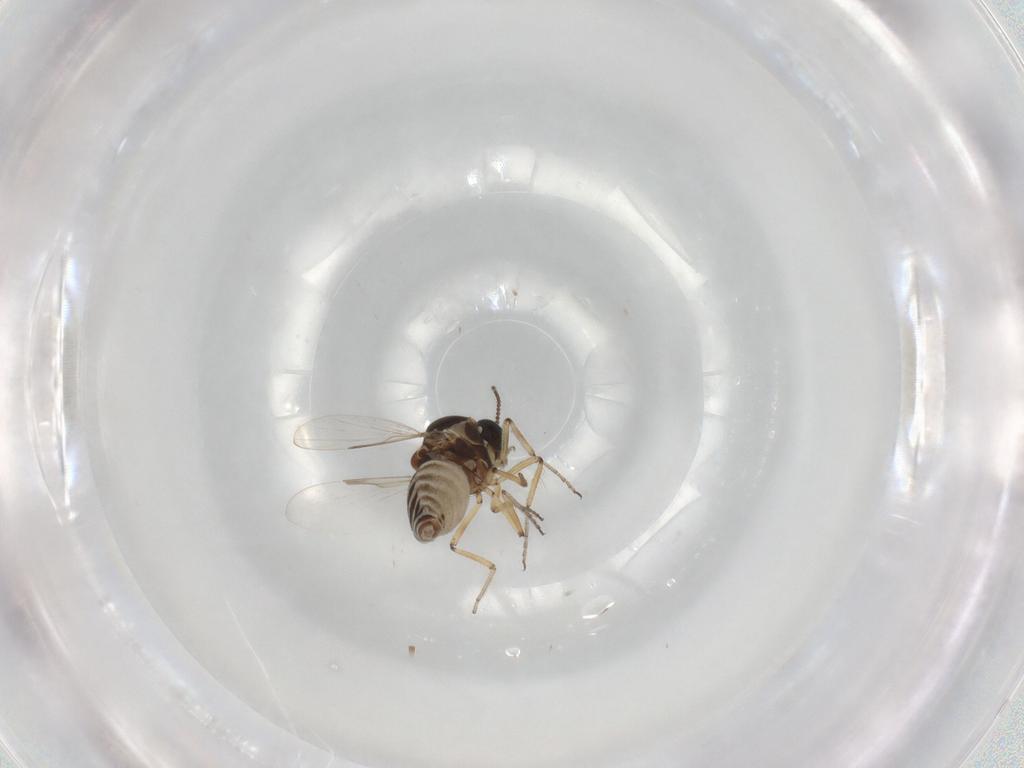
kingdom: Animalia
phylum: Arthropoda
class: Insecta
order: Diptera
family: Ceratopogonidae
